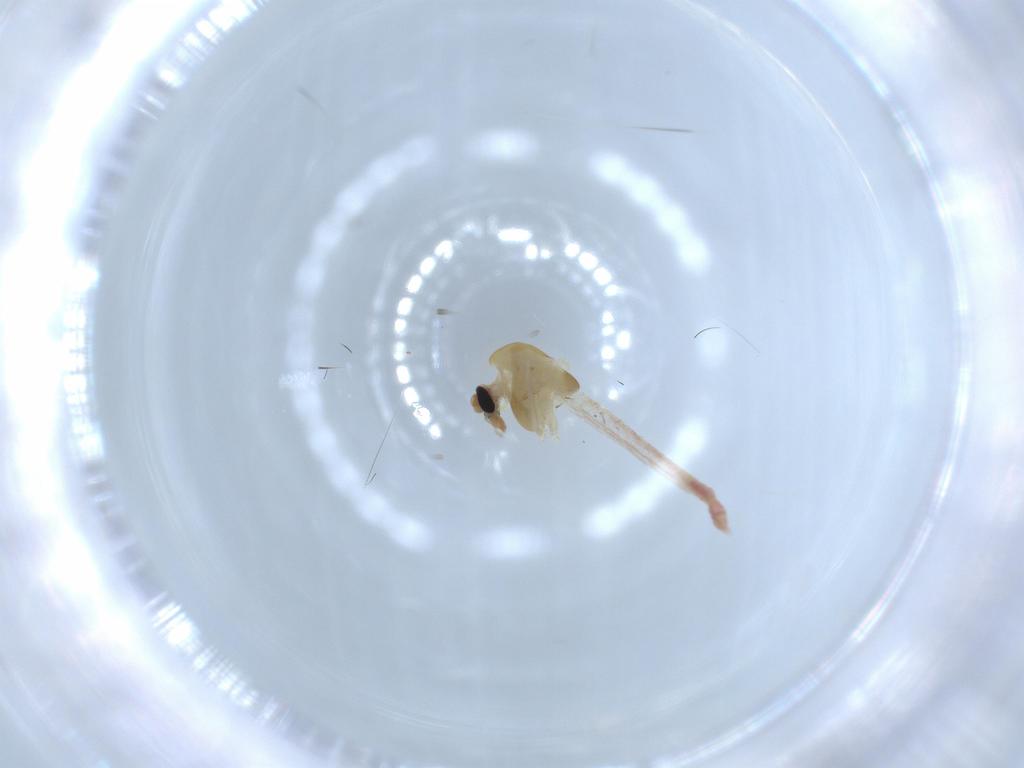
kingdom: Animalia
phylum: Arthropoda
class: Insecta
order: Diptera
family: Chironomidae
